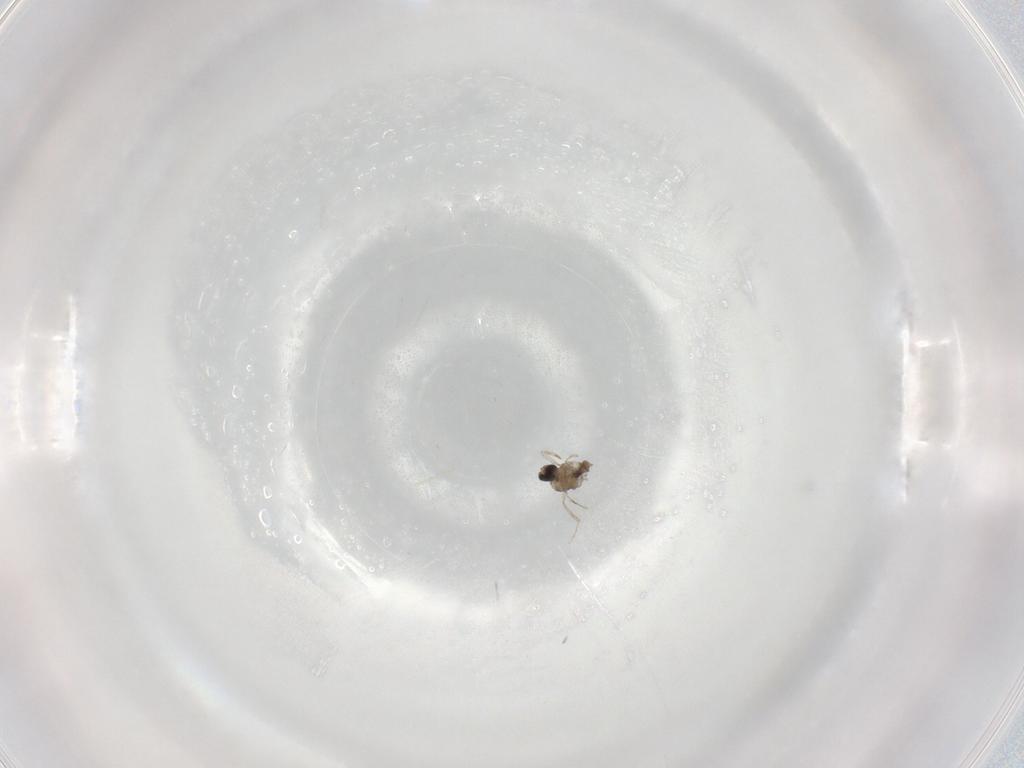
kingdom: Animalia
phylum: Arthropoda
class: Insecta
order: Diptera
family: Cecidomyiidae
